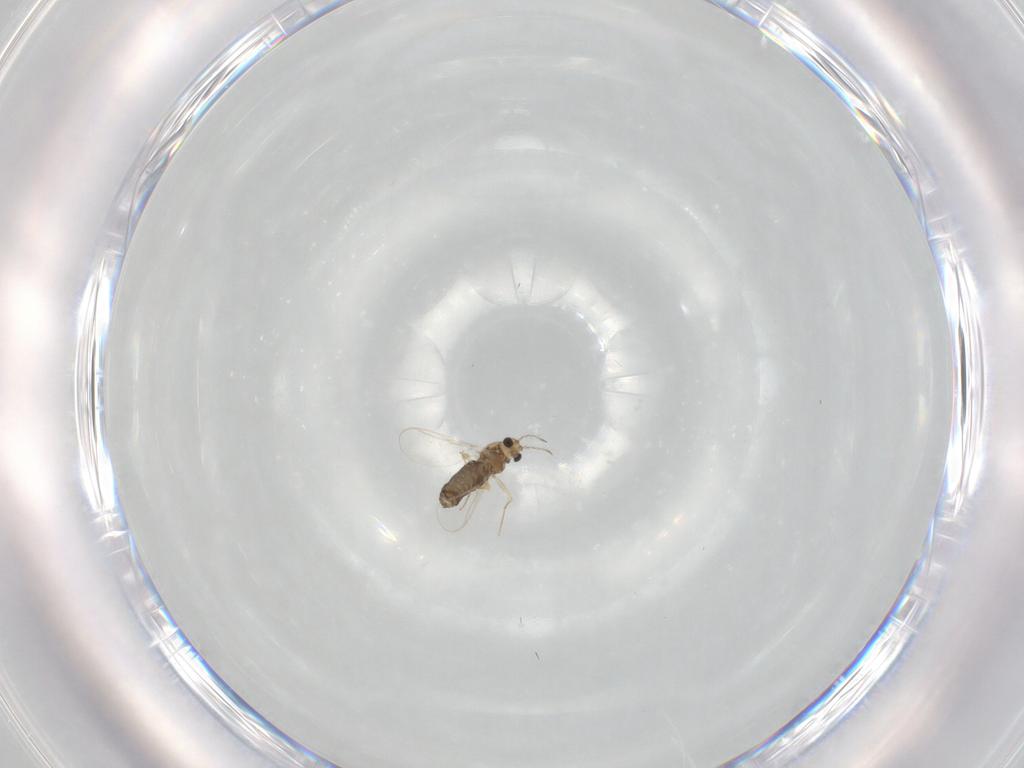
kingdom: Animalia
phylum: Arthropoda
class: Insecta
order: Diptera
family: Chironomidae
